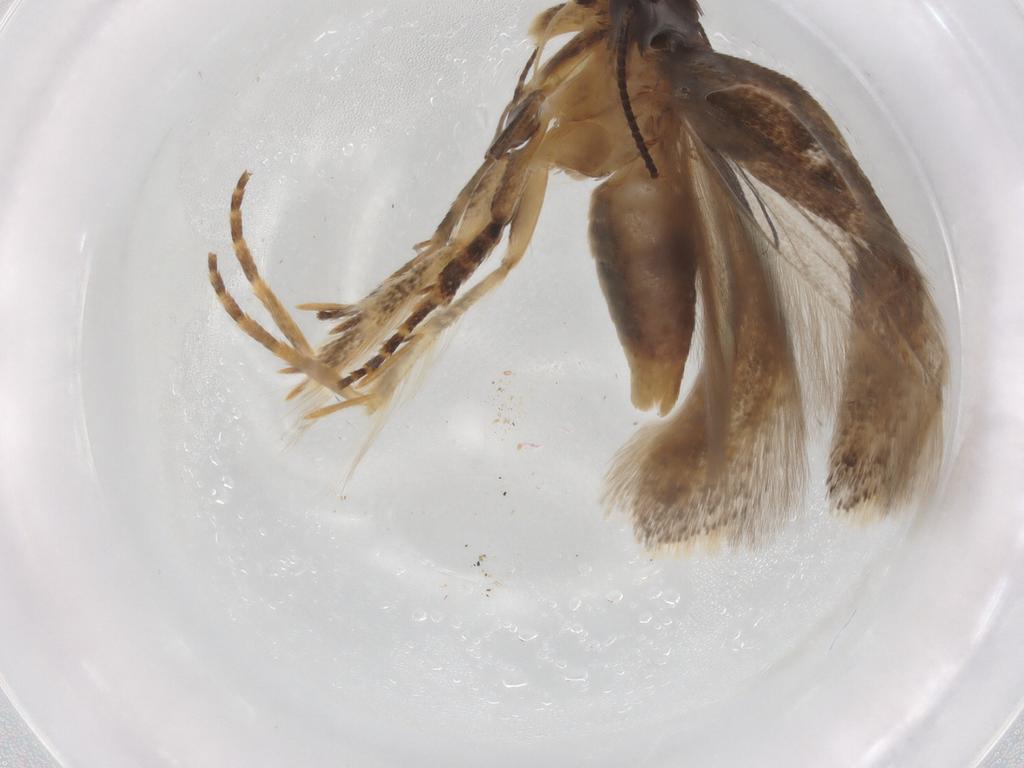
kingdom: Animalia
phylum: Arthropoda
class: Insecta
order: Lepidoptera
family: Gelechiidae
